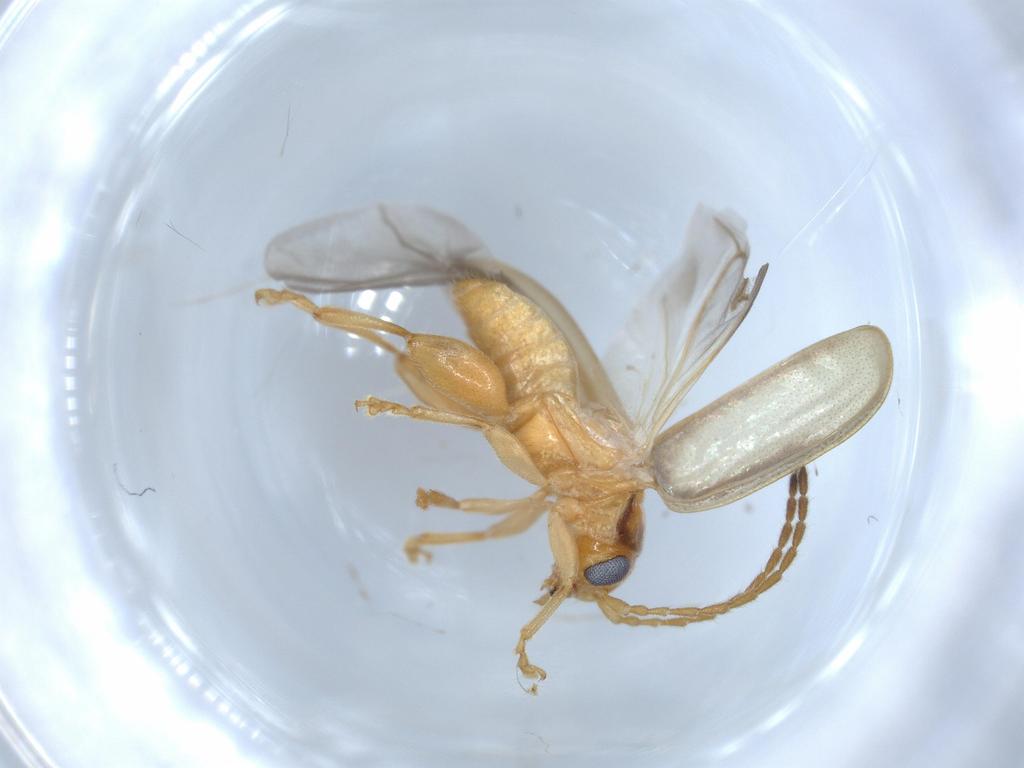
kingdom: Animalia
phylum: Arthropoda
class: Insecta
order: Coleoptera
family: Chrysomelidae
